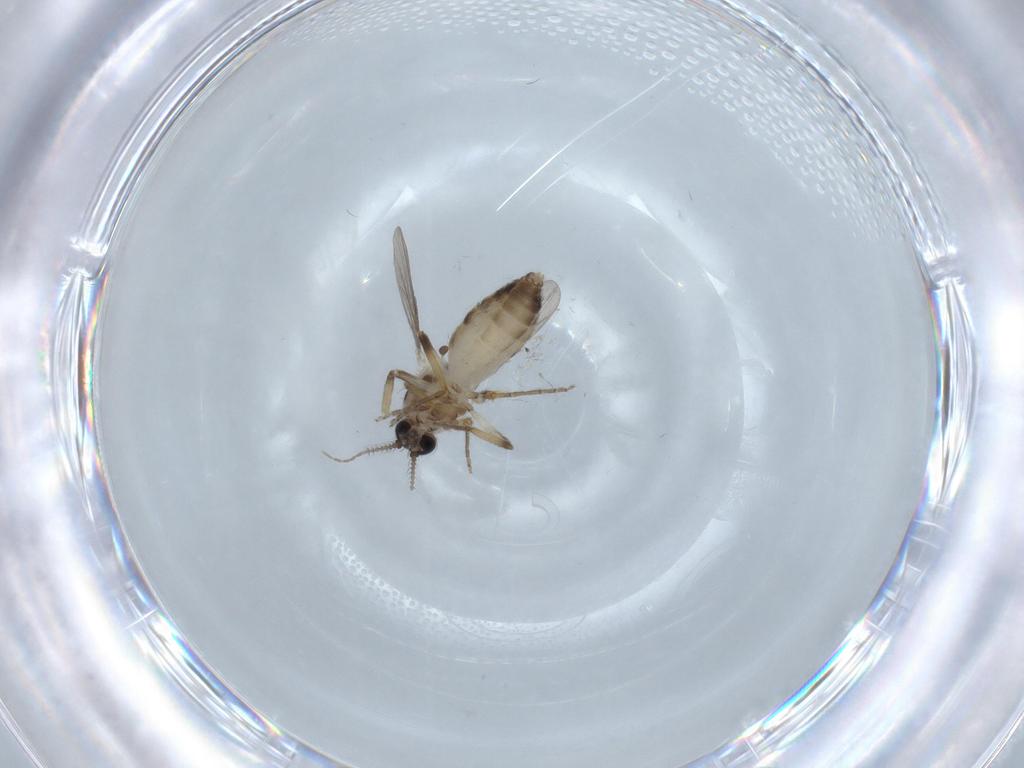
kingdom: Animalia
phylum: Arthropoda
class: Insecta
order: Diptera
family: Ceratopogonidae
